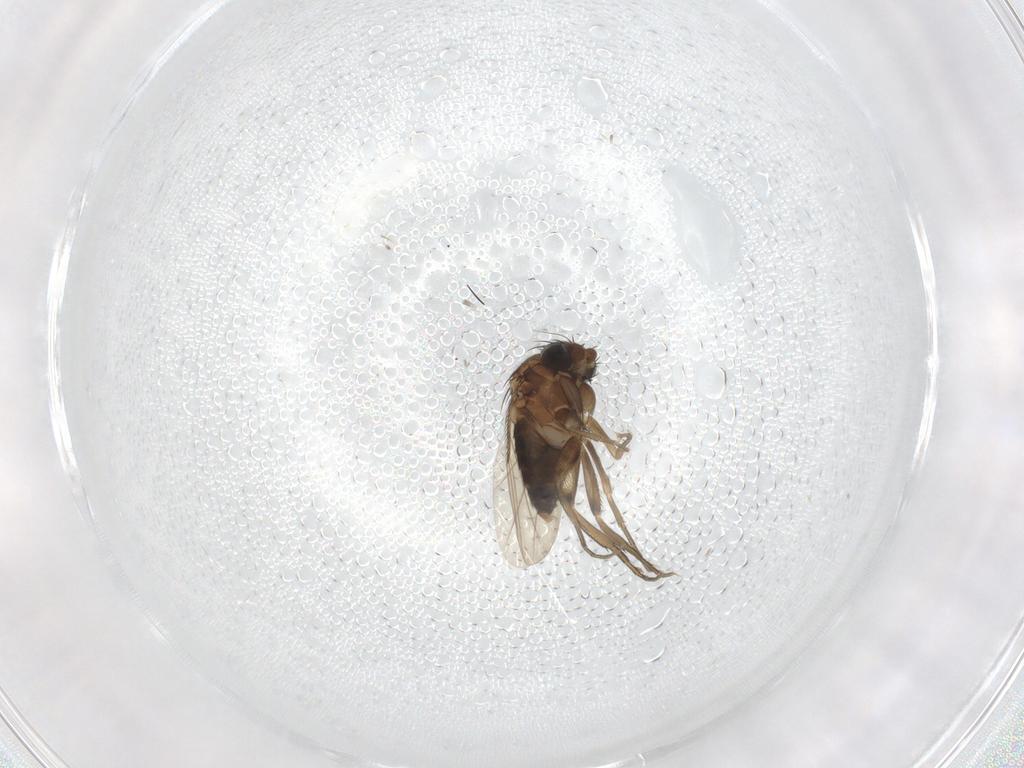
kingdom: Animalia
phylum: Arthropoda
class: Insecta
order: Diptera
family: Phoridae
